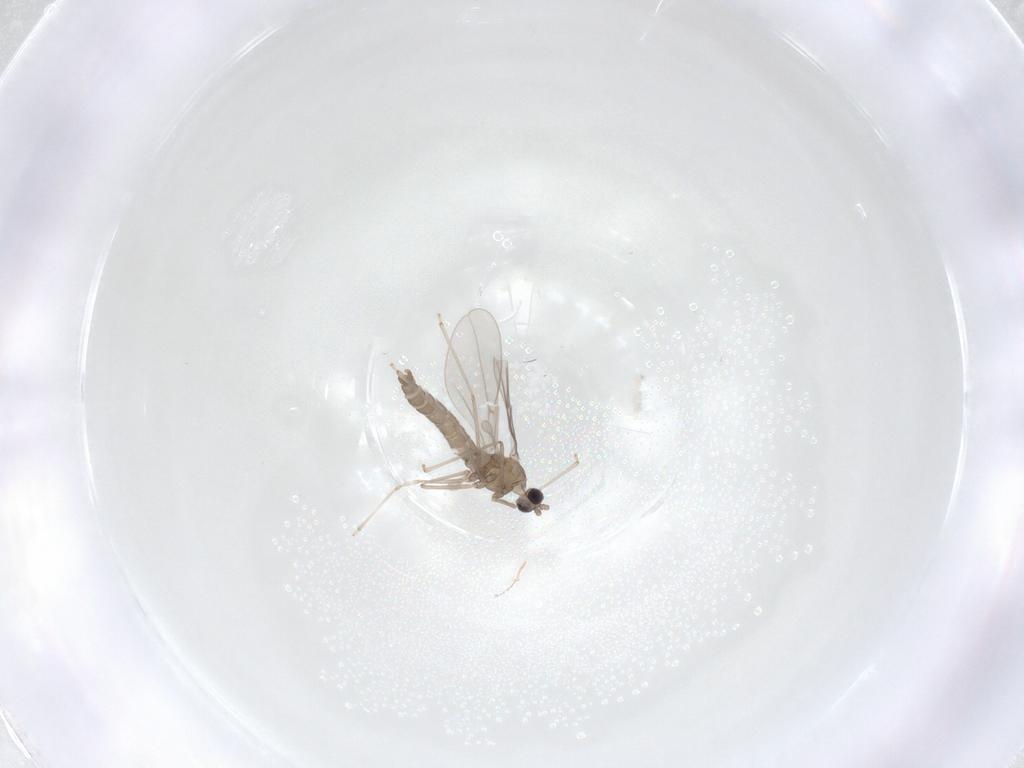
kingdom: Animalia
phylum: Arthropoda
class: Insecta
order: Diptera
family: Cecidomyiidae
